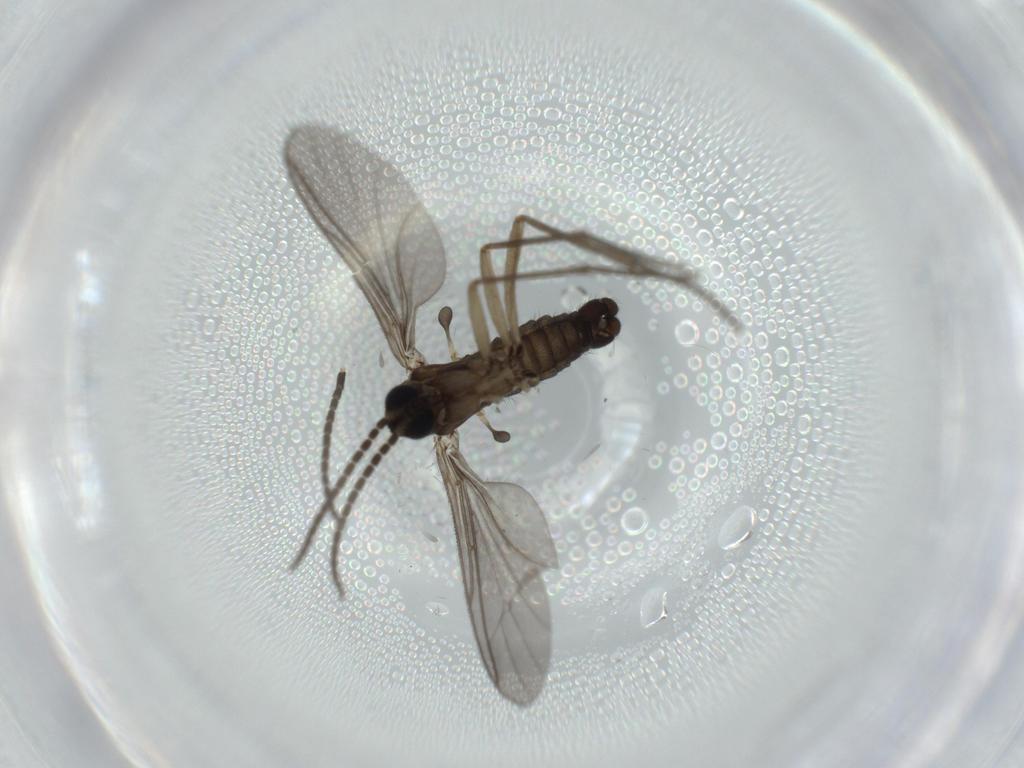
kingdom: Animalia
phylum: Arthropoda
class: Insecta
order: Diptera
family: Sciaridae
